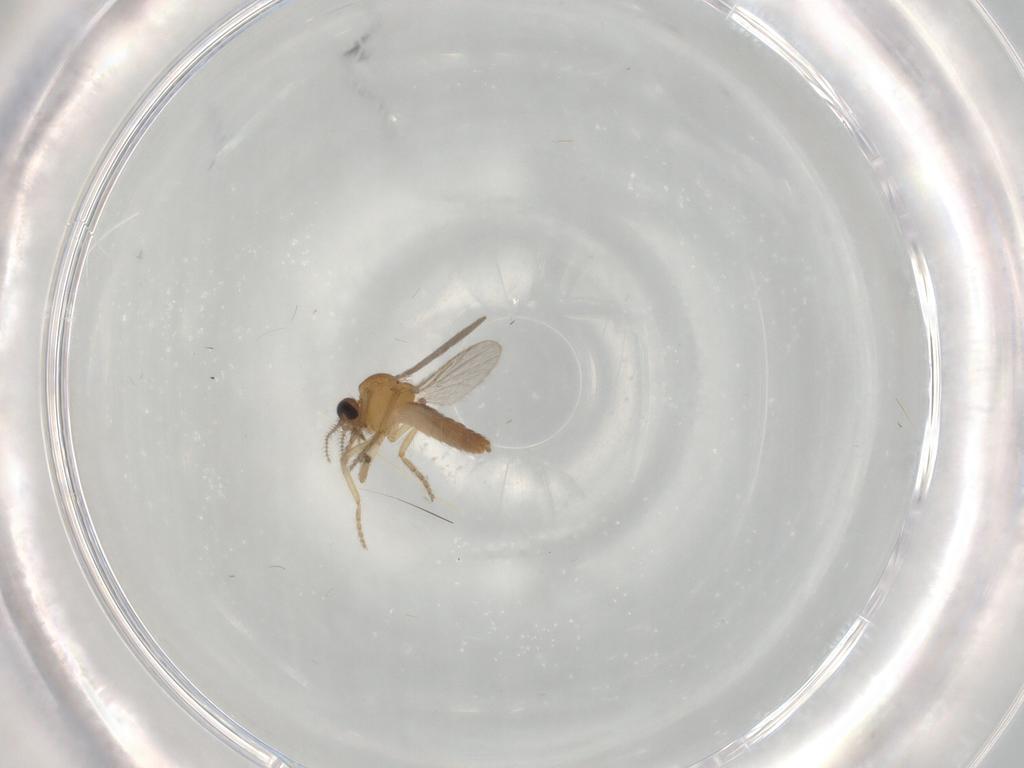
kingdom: Animalia
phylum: Arthropoda
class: Insecta
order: Diptera
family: Ceratopogonidae
